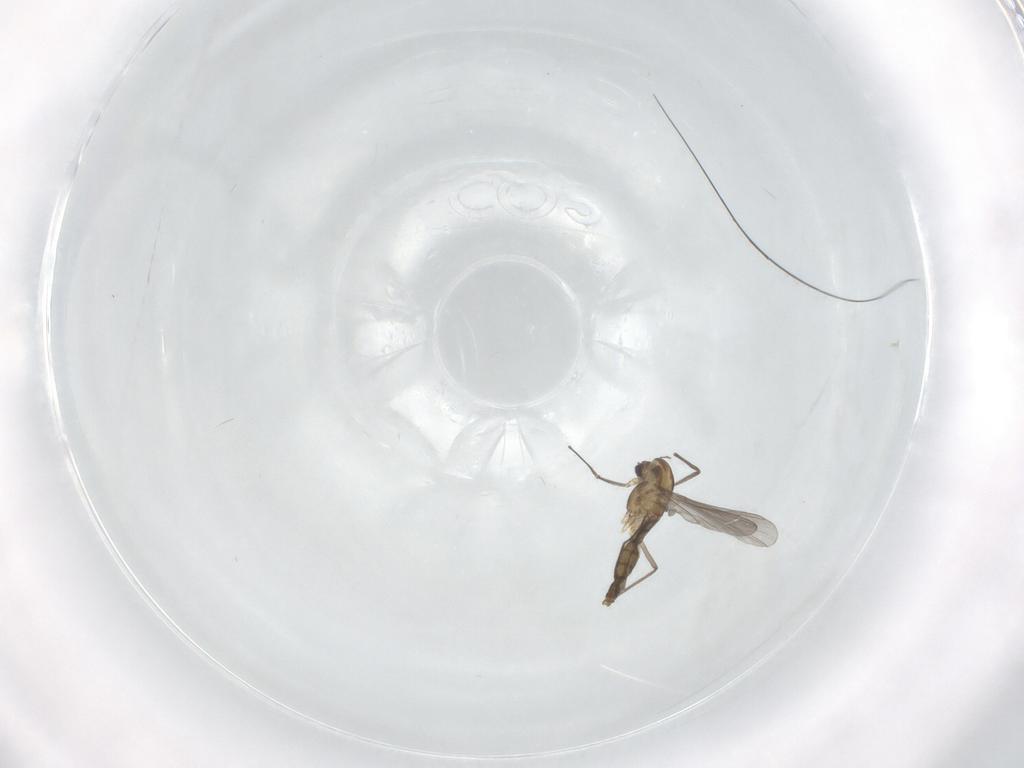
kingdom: Animalia
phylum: Arthropoda
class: Insecta
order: Diptera
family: Hybotidae
